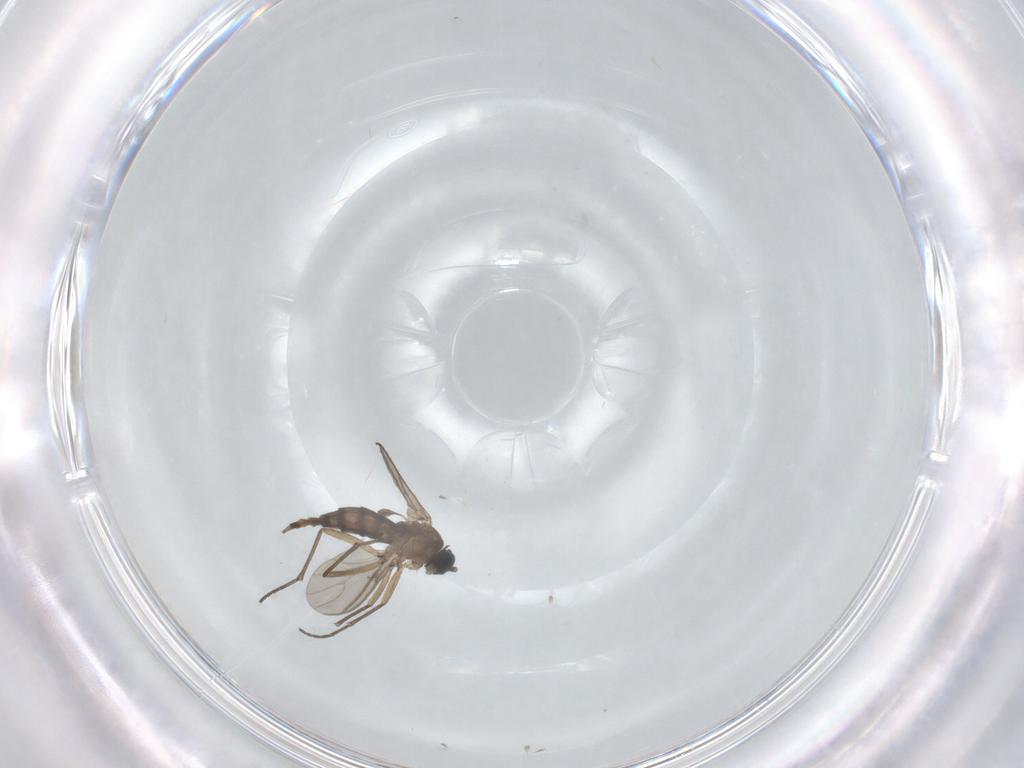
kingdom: Animalia
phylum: Arthropoda
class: Insecta
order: Diptera
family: Sciaridae
